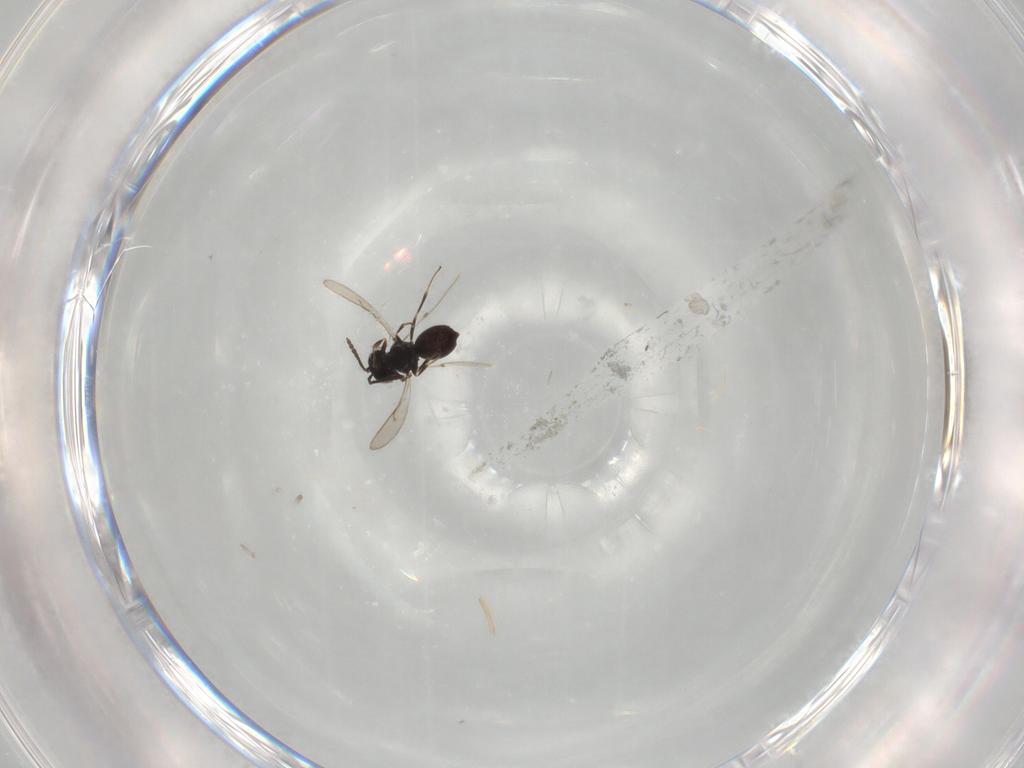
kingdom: Animalia
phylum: Arthropoda
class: Insecta
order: Hymenoptera
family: Scelionidae
